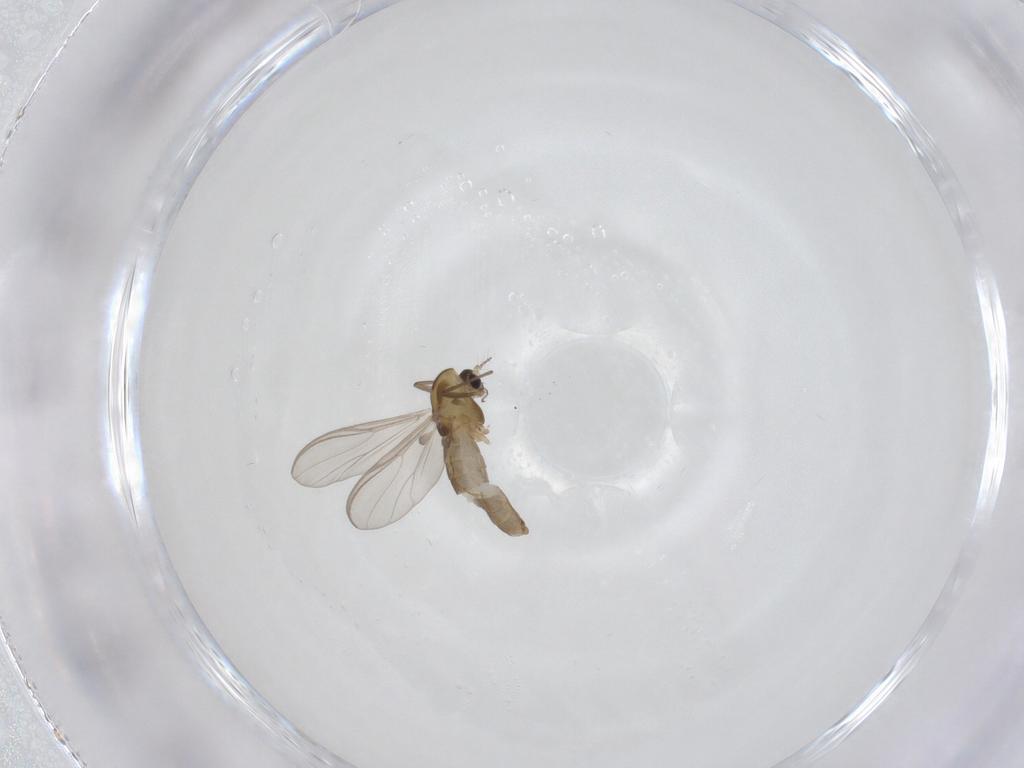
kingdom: Animalia
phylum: Arthropoda
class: Insecta
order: Diptera
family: Chironomidae
